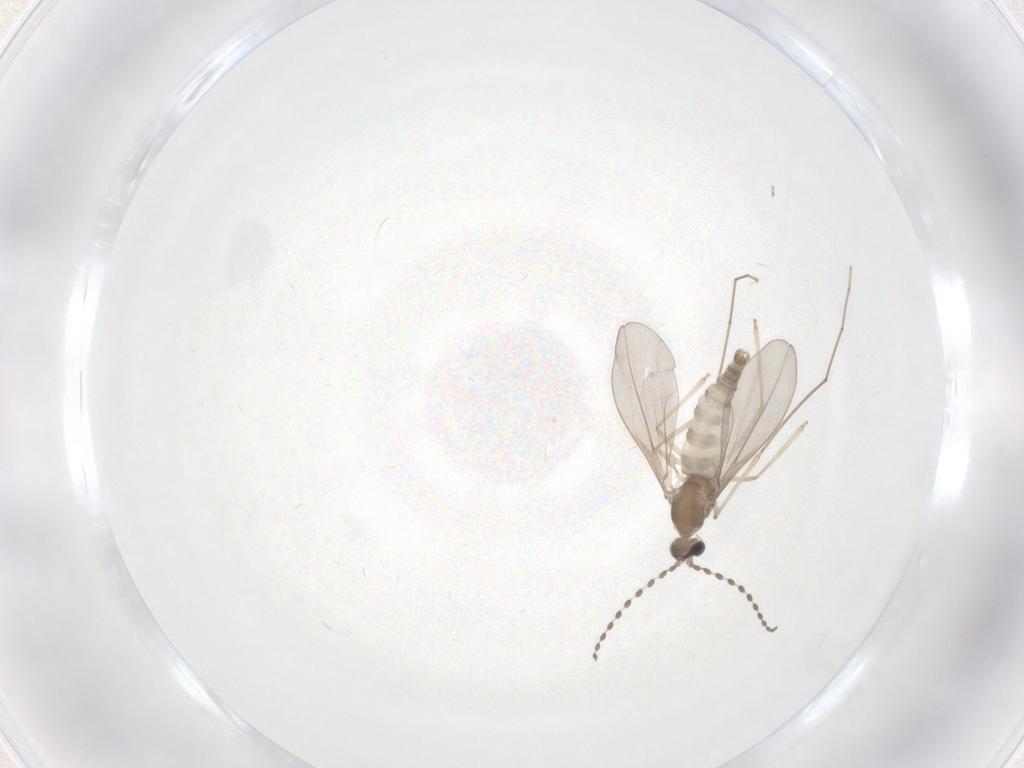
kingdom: Animalia
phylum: Arthropoda
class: Insecta
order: Diptera
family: Cecidomyiidae
